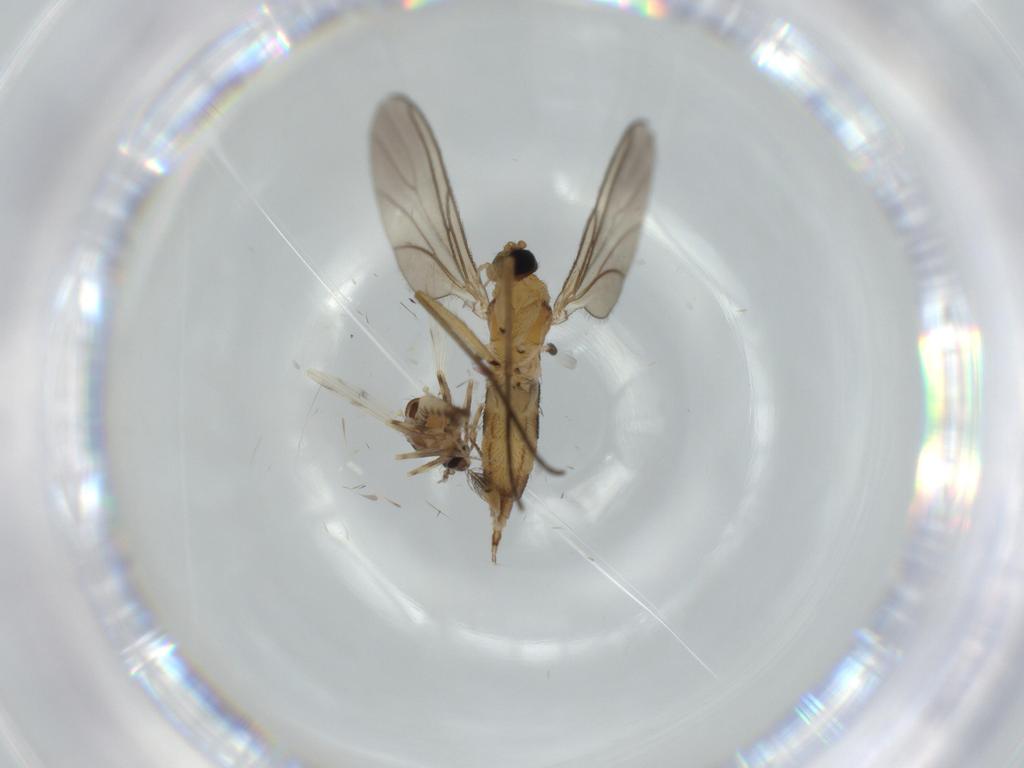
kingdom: Animalia
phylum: Arthropoda
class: Insecta
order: Diptera
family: Ceratopogonidae
